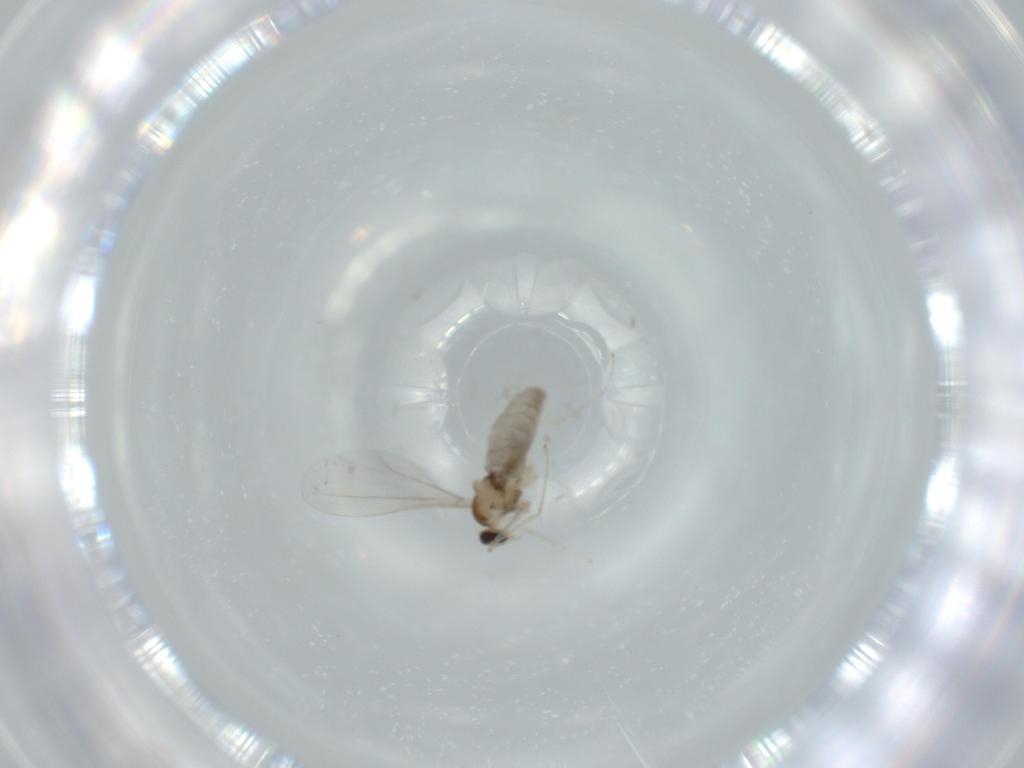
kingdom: Animalia
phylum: Arthropoda
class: Insecta
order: Diptera
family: Cecidomyiidae
